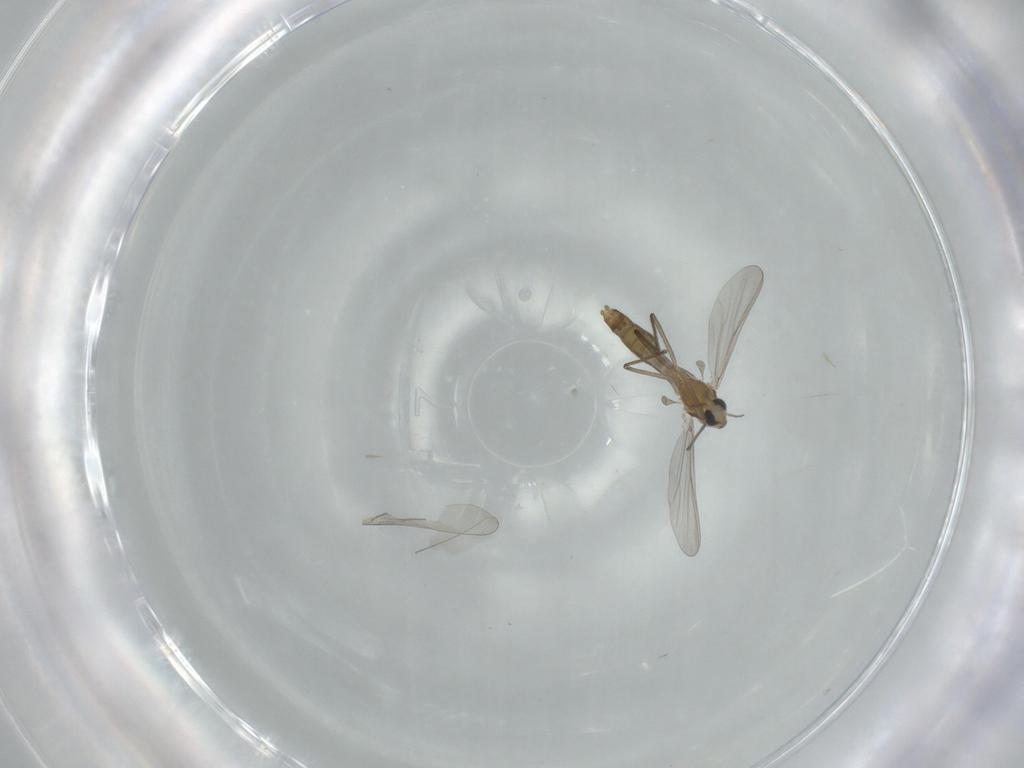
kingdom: Animalia
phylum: Arthropoda
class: Insecta
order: Diptera
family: Cecidomyiidae
